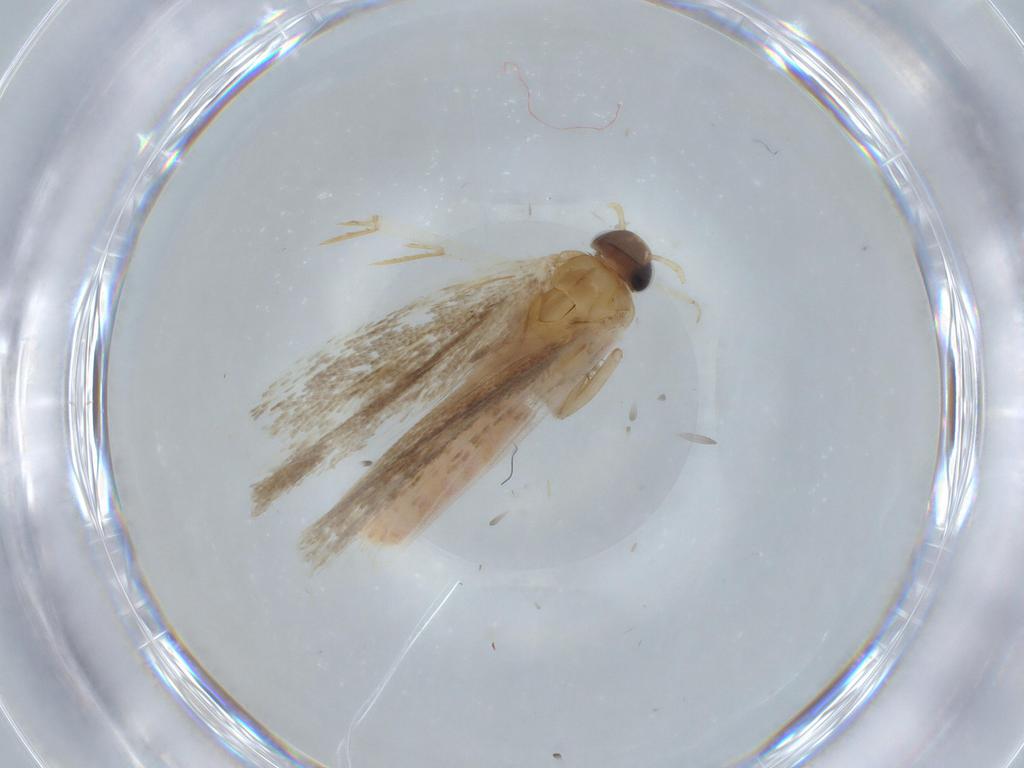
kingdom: Animalia
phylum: Arthropoda
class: Insecta
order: Lepidoptera
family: Gelechiidae
